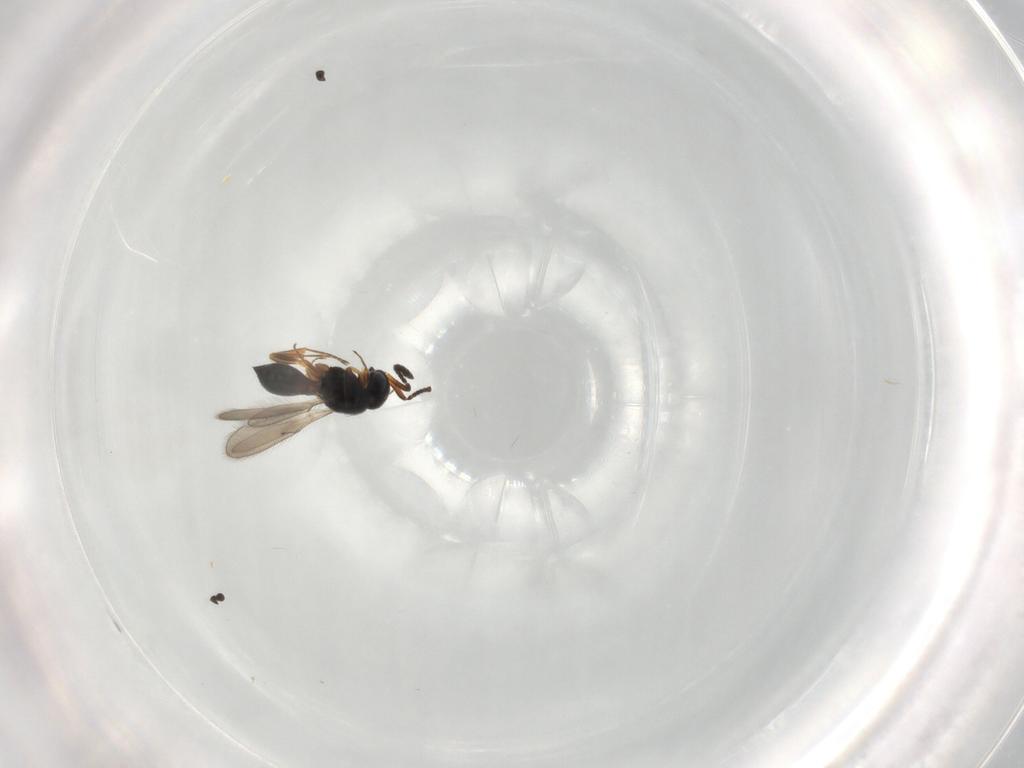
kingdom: Animalia
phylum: Arthropoda
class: Insecta
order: Hymenoptera
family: Scelionidae
